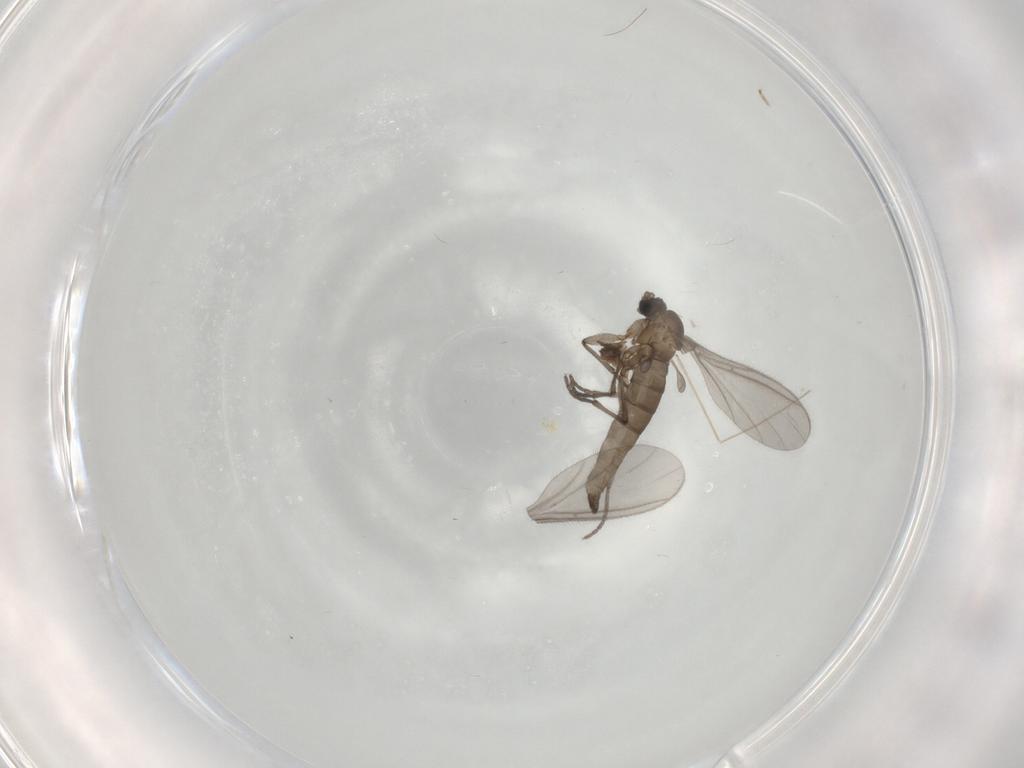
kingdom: Animalia
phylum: Arthropoda
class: Insecta
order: Diptera
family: Sciaridae
